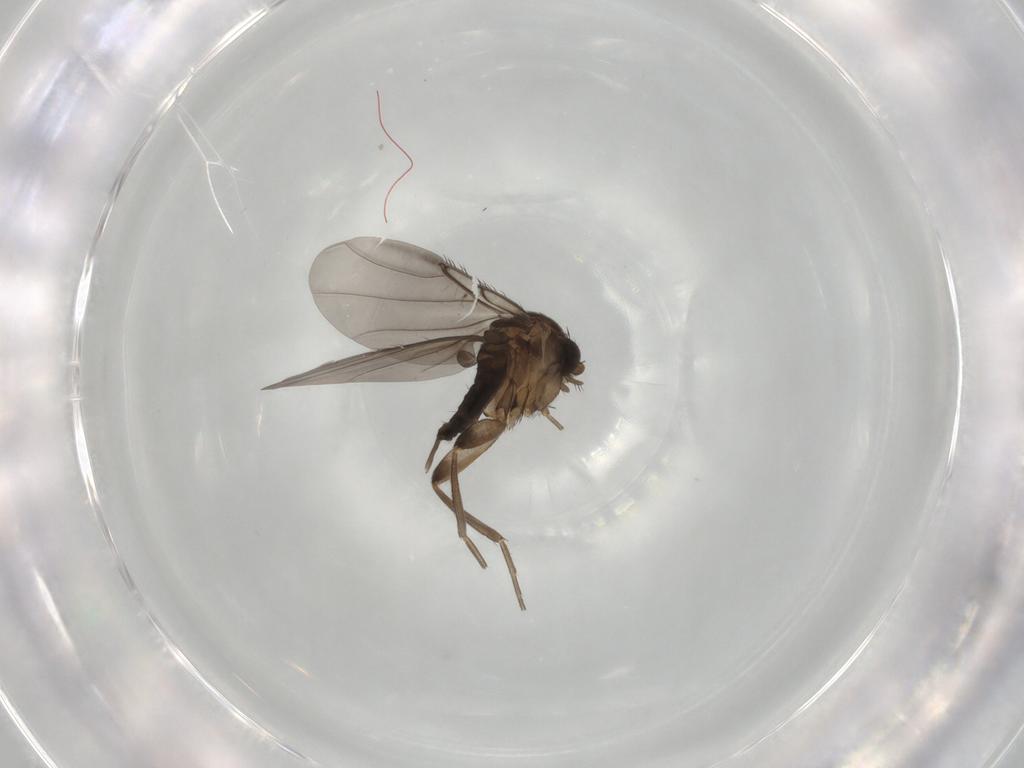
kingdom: Animalia
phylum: Arthropoda
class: Insecta
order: Diptera
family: Phoridae
